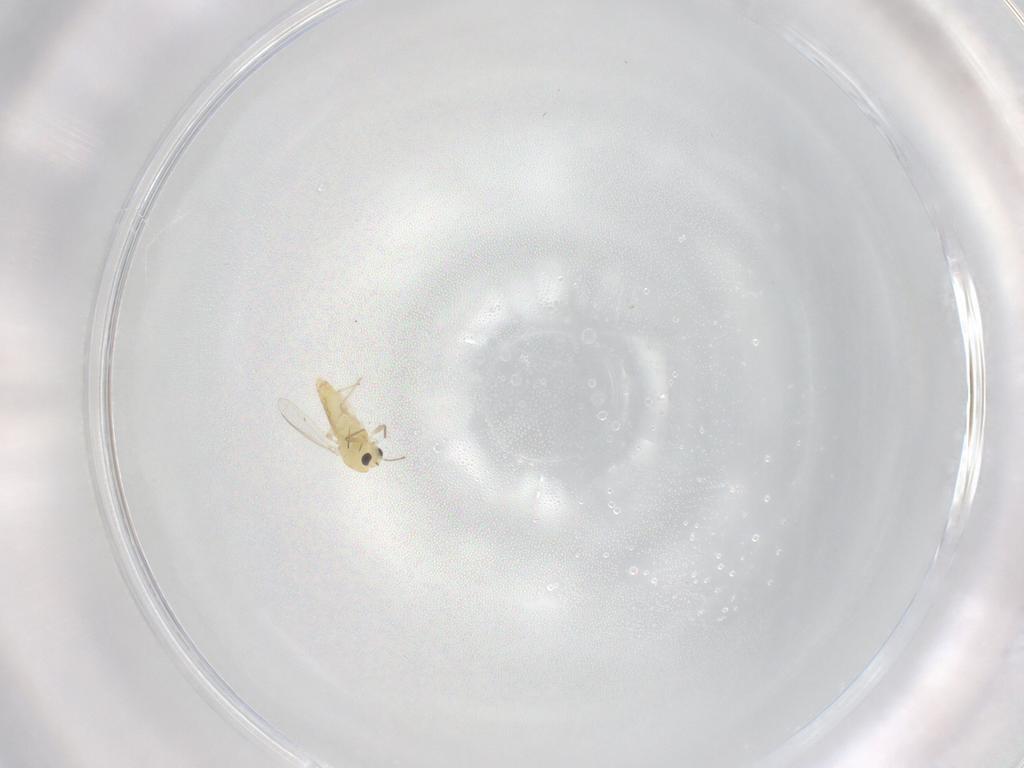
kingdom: Animalia
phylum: Arthropoda
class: Insecta
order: Diptera
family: Chironomidae
